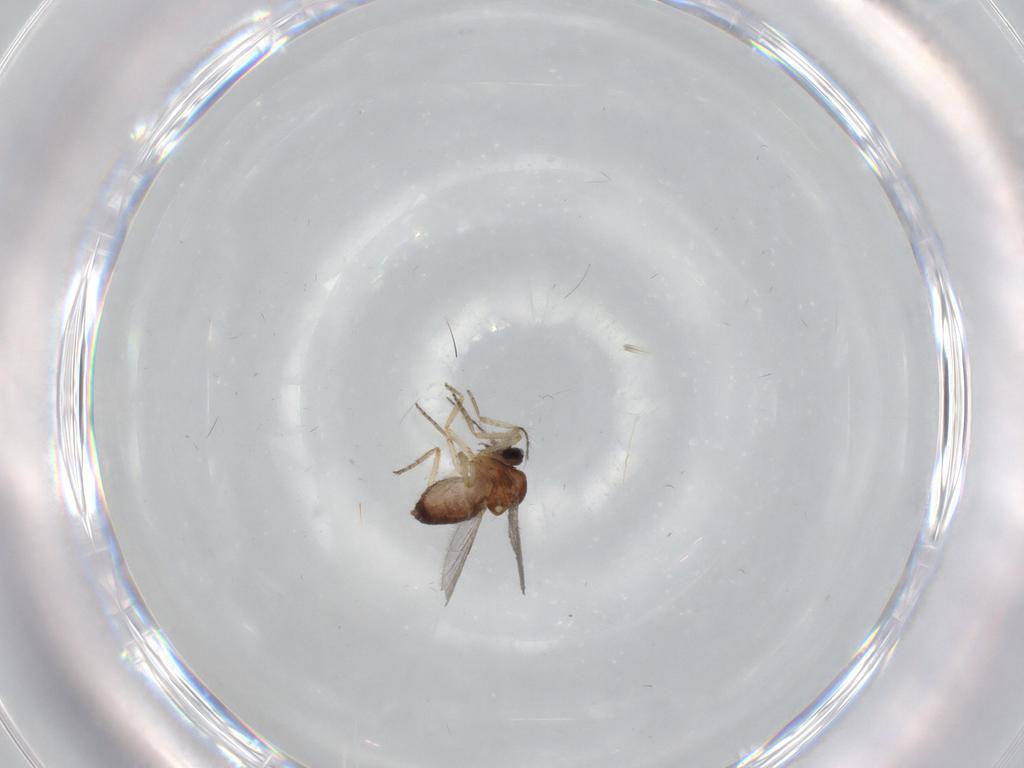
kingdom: Animalia
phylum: Arthropoda
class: Insecta
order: Diptera
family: Ceratopogonidae
